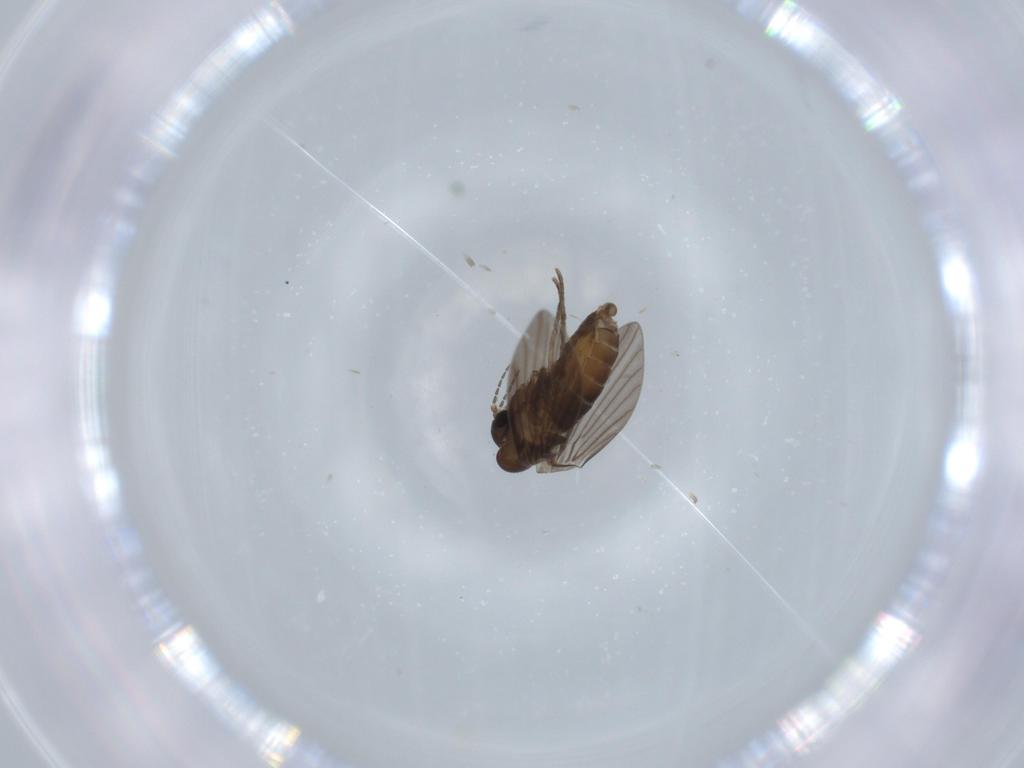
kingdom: Animalia
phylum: Arthropoda
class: Insecta
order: Diptera
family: Psychodidae
